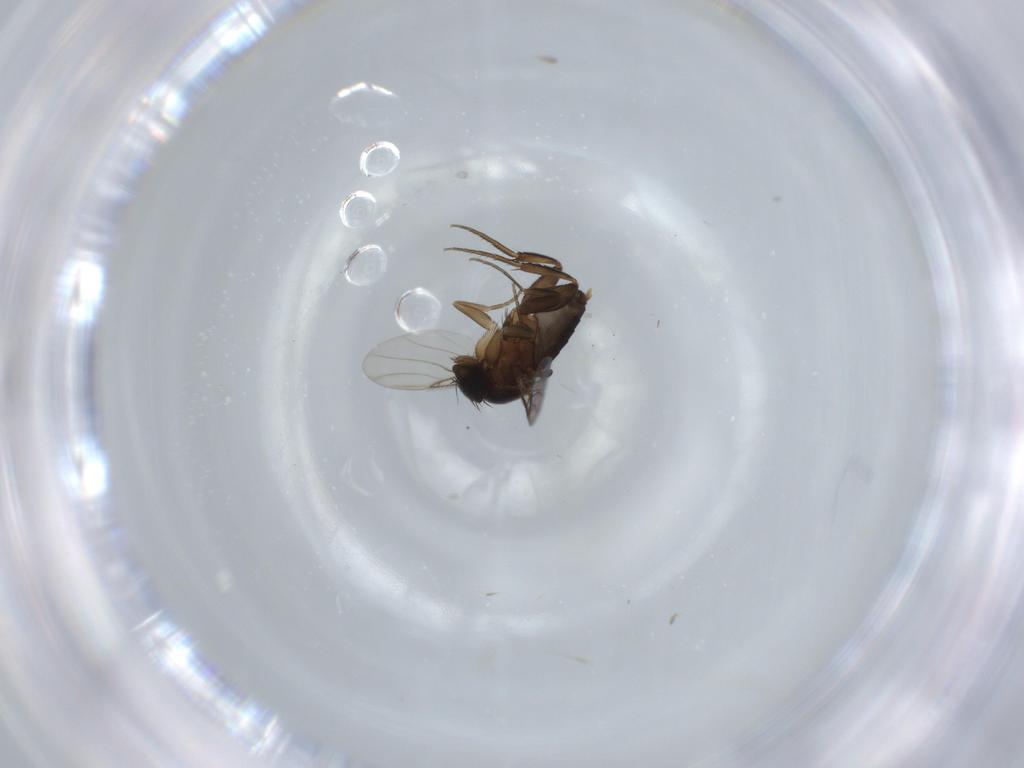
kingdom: Animalia
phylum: Arthropoda
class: Insecta
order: Diptera
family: Phoridae
